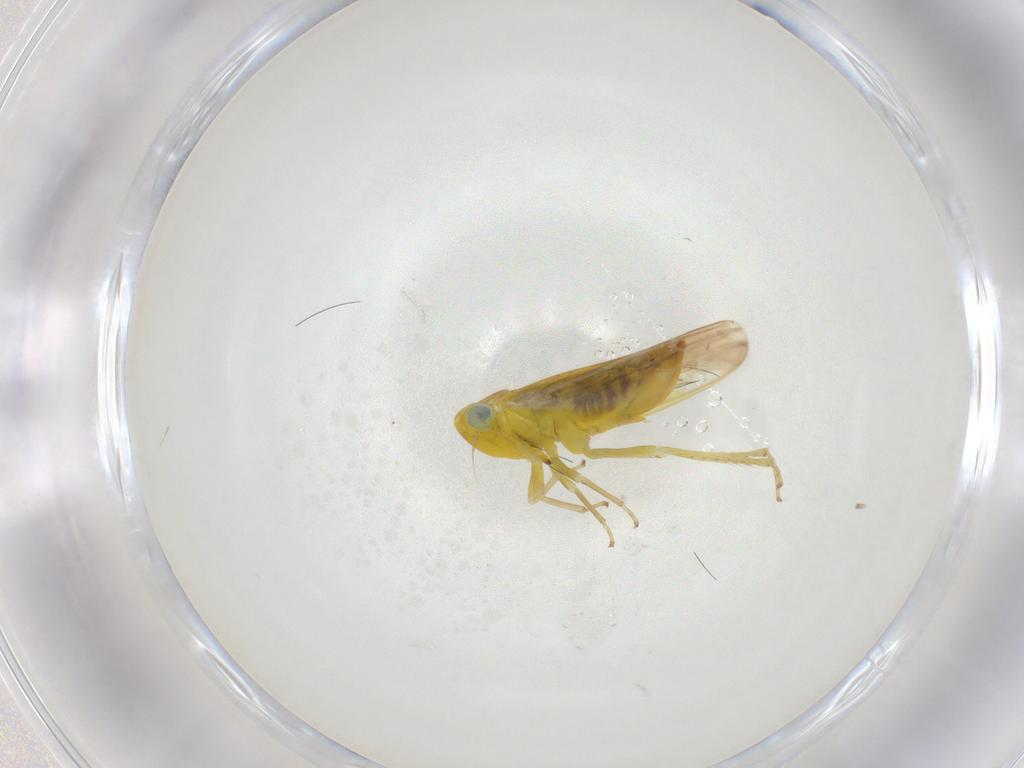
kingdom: Animalia
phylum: Arthropoda
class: Insecta
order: Hemiptera
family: Cicadellidae
